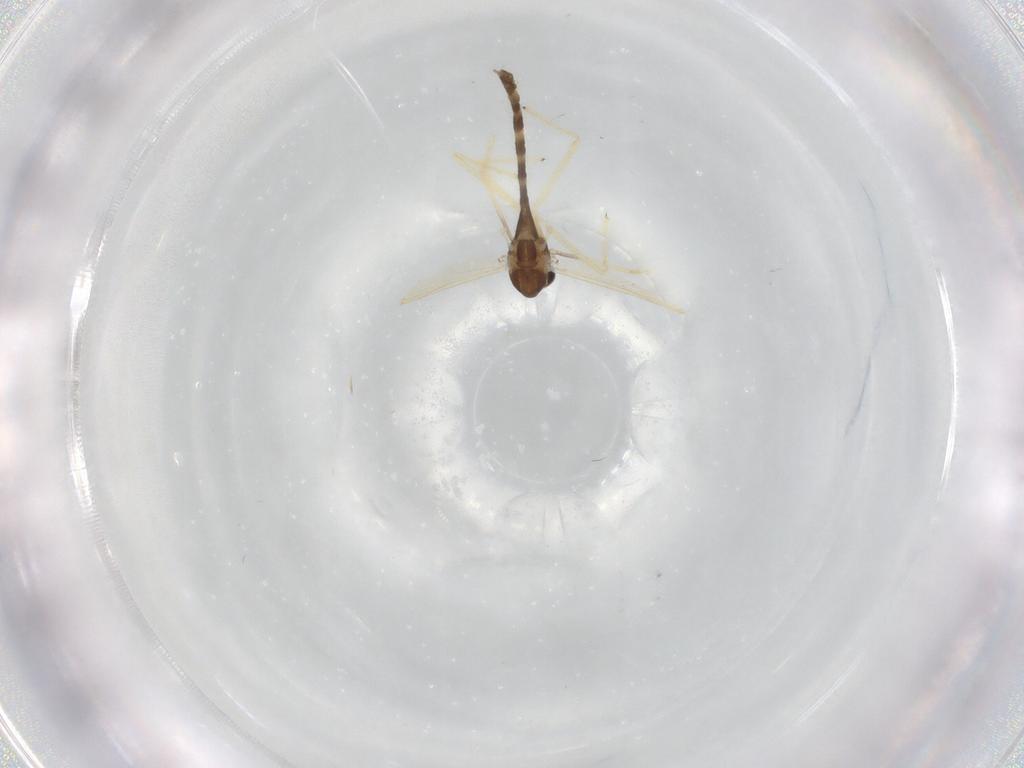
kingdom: Animalia
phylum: Arthropoda
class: Insecta
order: Diptera
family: Chironomidae
